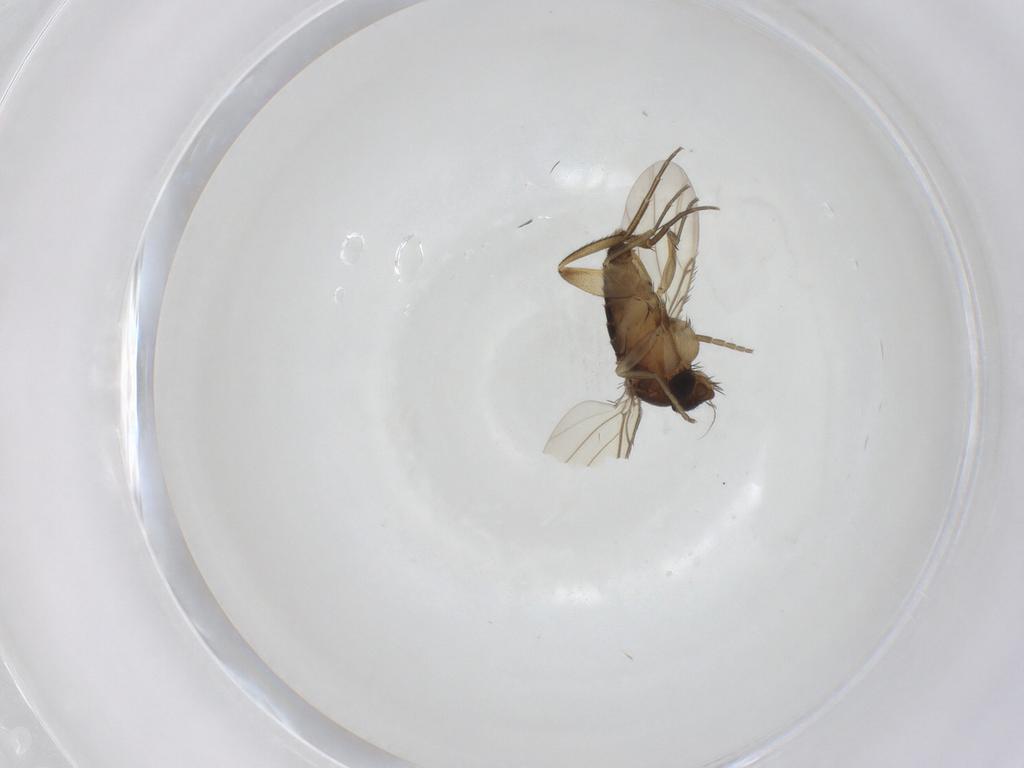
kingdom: Animalia
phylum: Arthropoda
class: Insecta
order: Diptera
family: Phoridae
